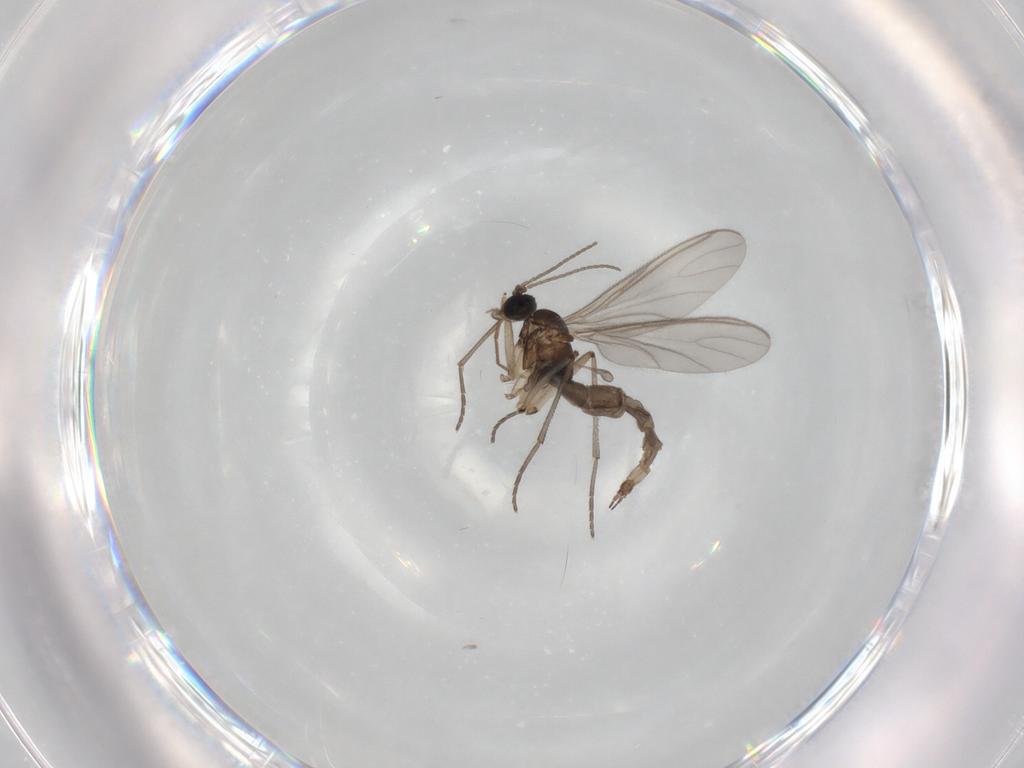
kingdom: Animalia
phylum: Arthropoda
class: Insecta
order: Diptera
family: Sciaridae
